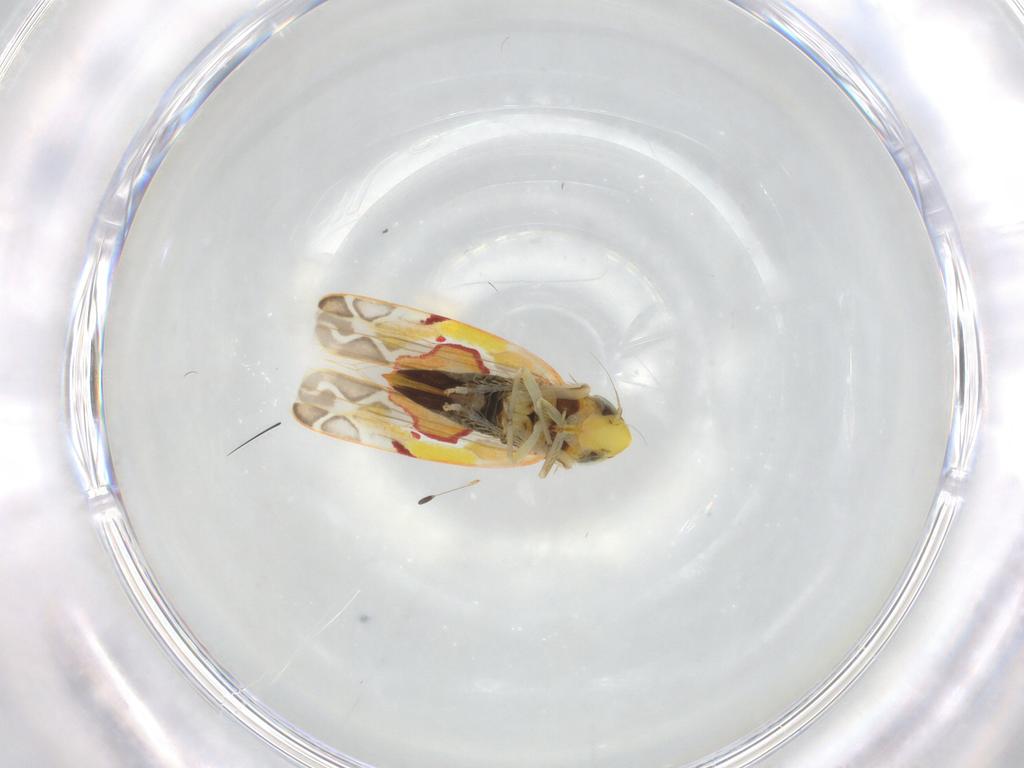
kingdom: Animalia
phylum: Arthropoda
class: Insecta
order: Hemiptera
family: Cicadellidae
